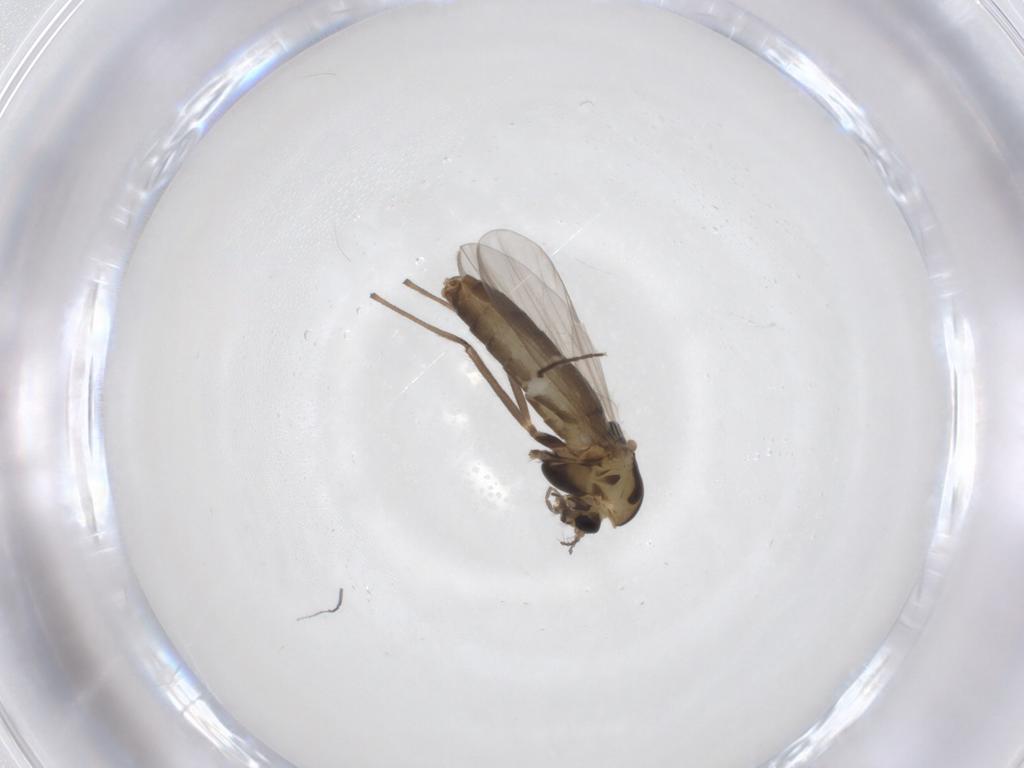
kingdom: Animalia
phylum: Arthropoda
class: Insecta
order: Diptera
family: Chironomidae
